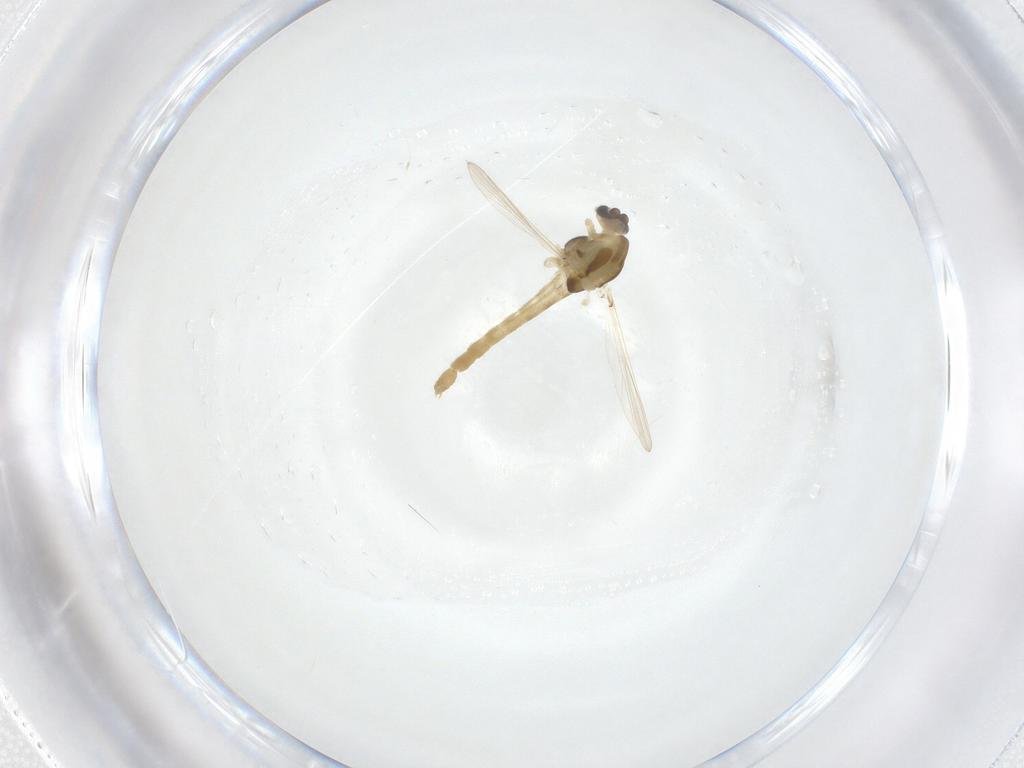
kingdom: Animalia
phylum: Arthropoda
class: Insecta
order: Diptera
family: Chironomidae
